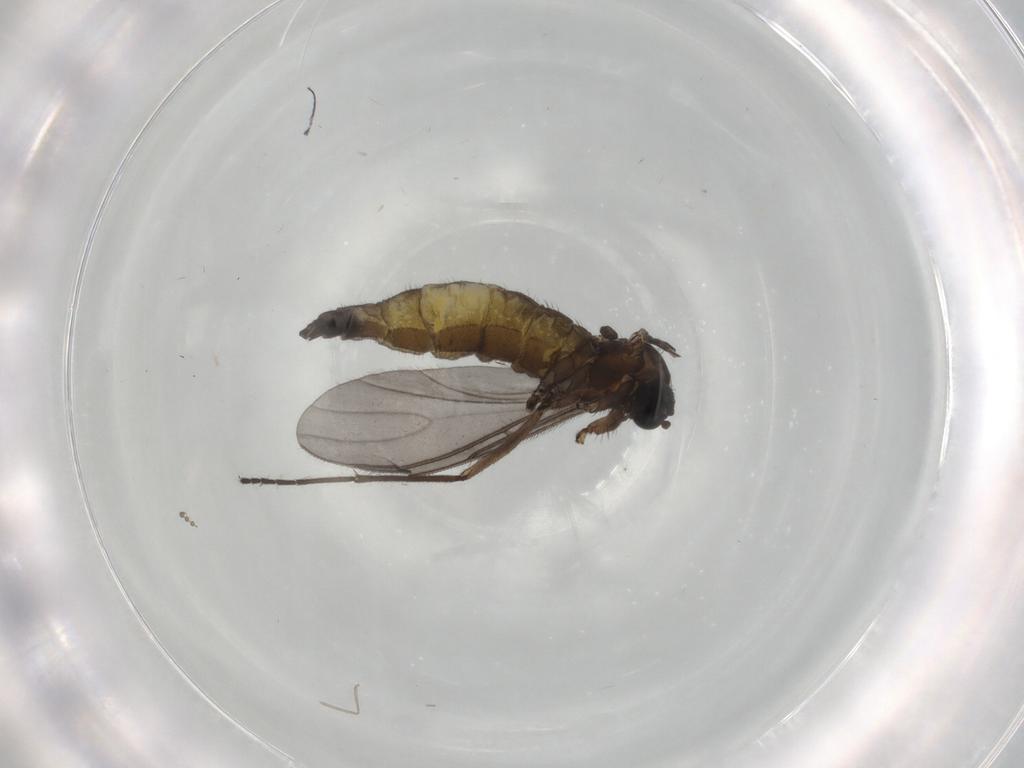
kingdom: Animalia
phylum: Arthropoda
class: Insecta
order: Diptera
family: Sciaridae
